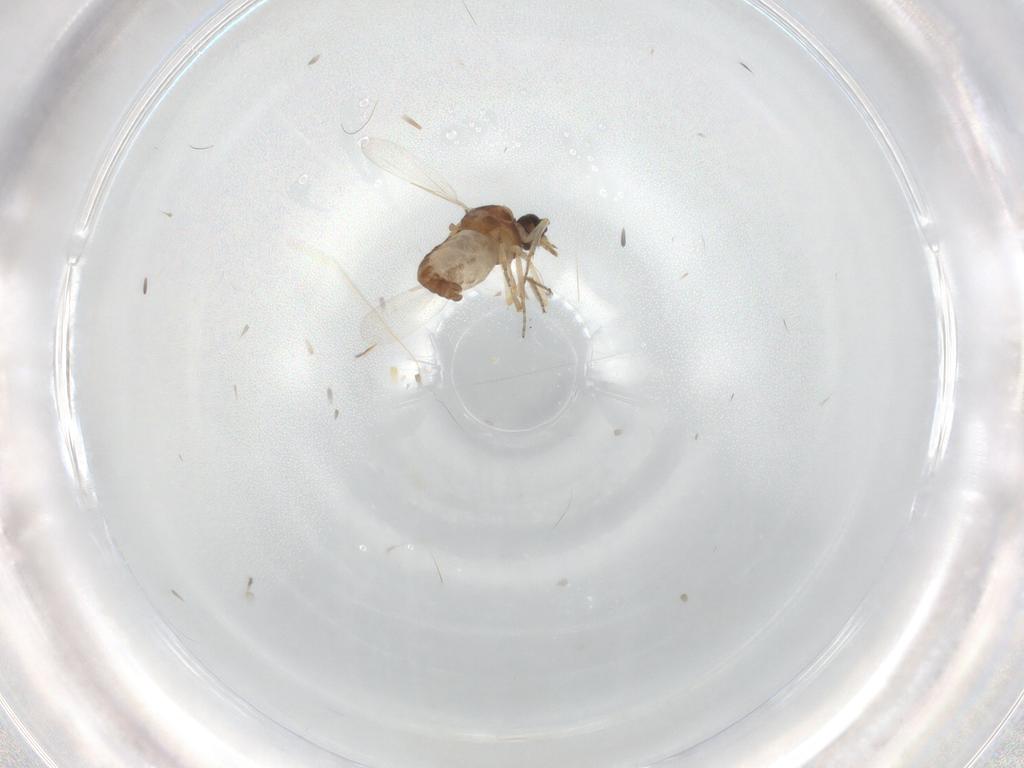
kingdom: Animalia
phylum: Arthropoda
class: Insecta
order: Diptera
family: Ceratopogonidae
